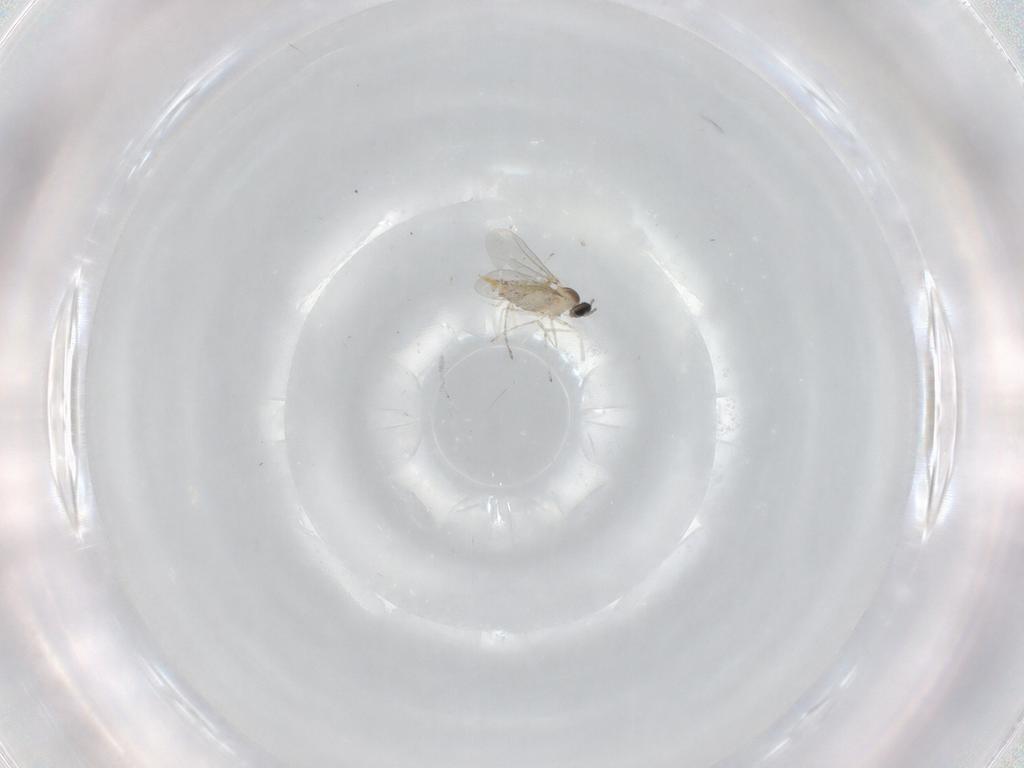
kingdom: Animalia
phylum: Arthropoda
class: Insecta
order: Diptera
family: Cecidomyiidae
